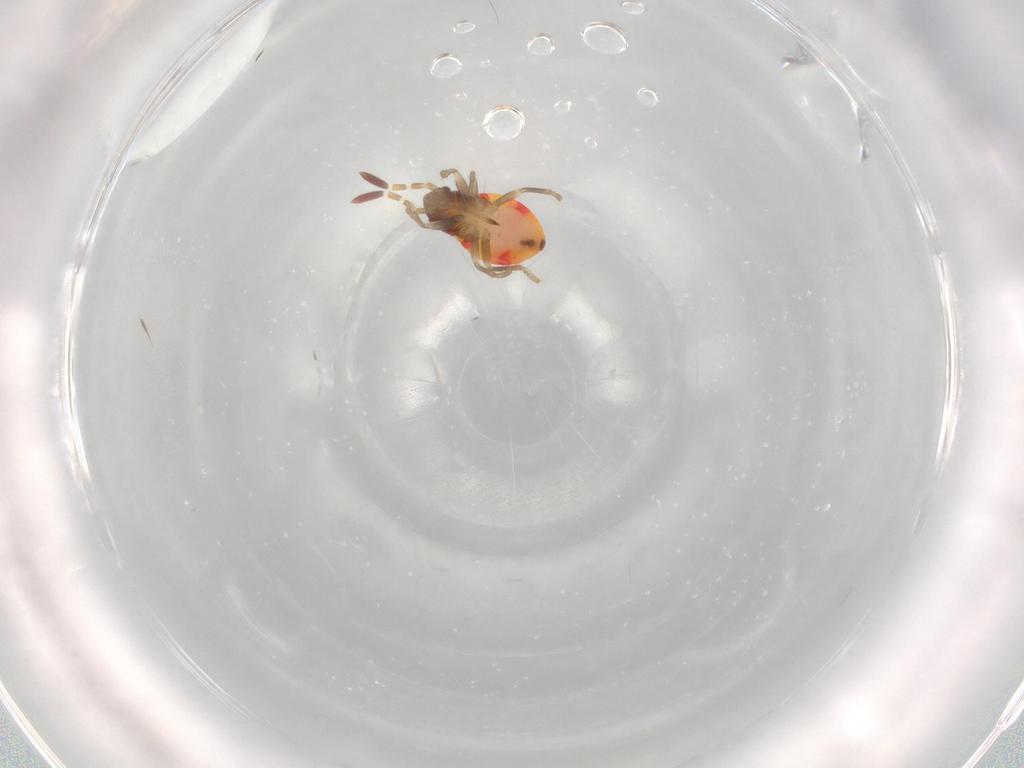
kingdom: Animalia
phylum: Arthropoda
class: Insecta
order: Hemiptera
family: Rhyparochromidae
